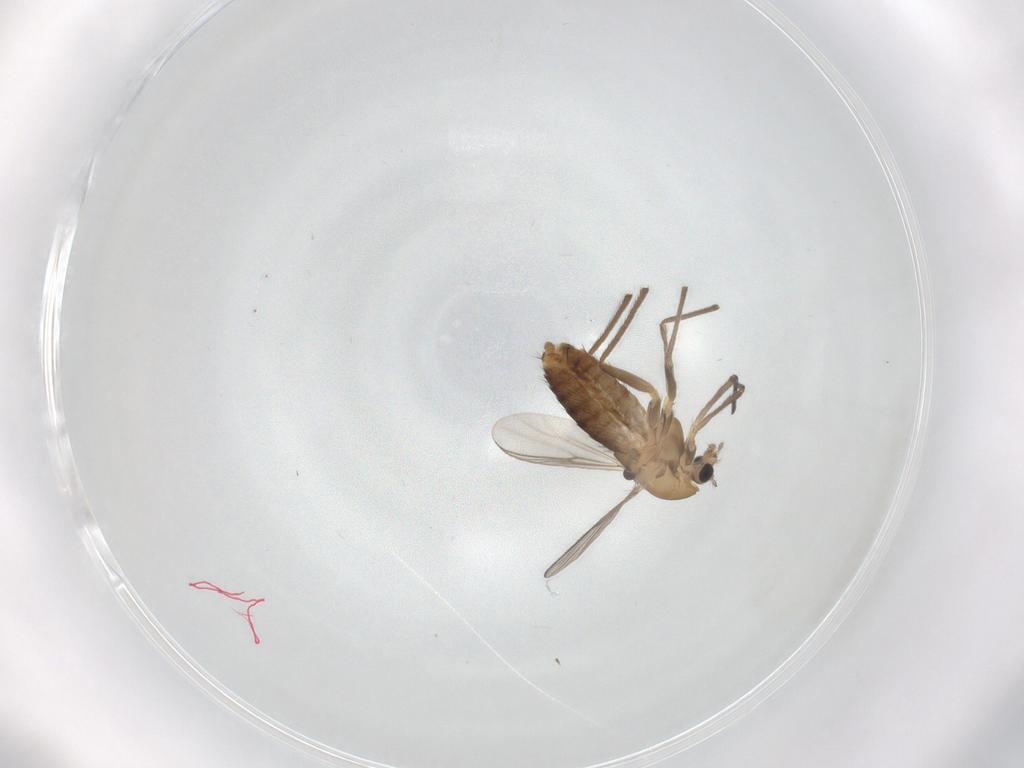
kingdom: Animalia
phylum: Arthropoda
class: Insecta
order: Diptera
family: Chironomidae
